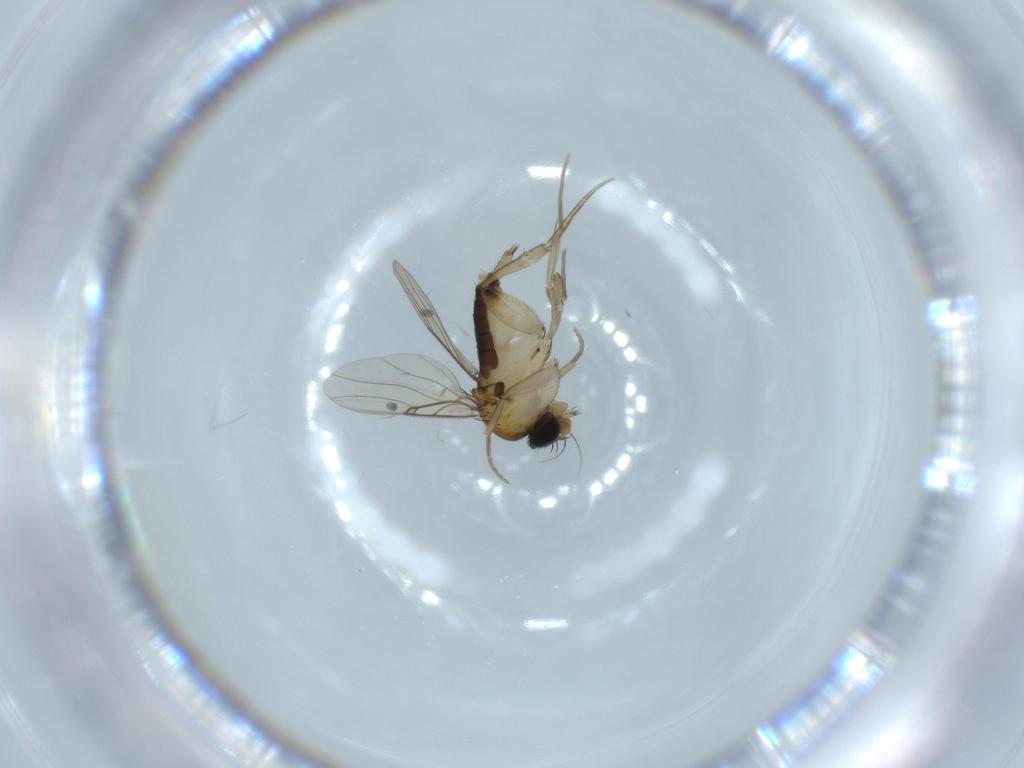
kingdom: Animalia
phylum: Arthropoda
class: Insecta
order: Diptera
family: Phoridae
